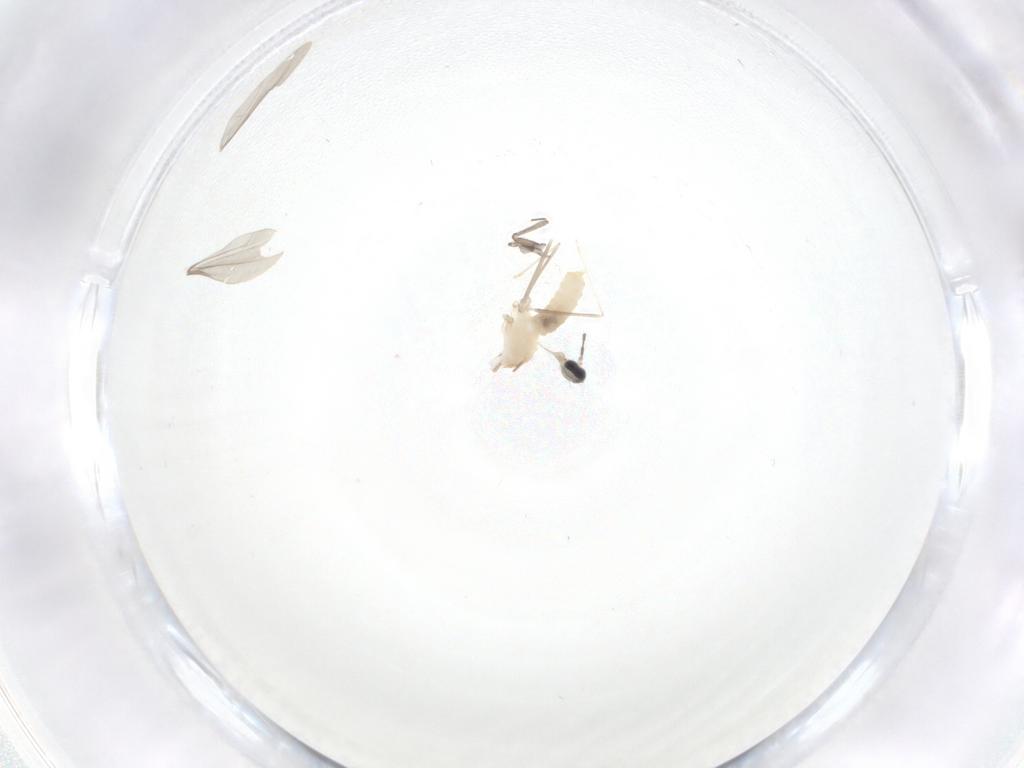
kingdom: Animalia
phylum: Arthropoda
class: Insecta
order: Diptera
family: Cecidomyiidae
